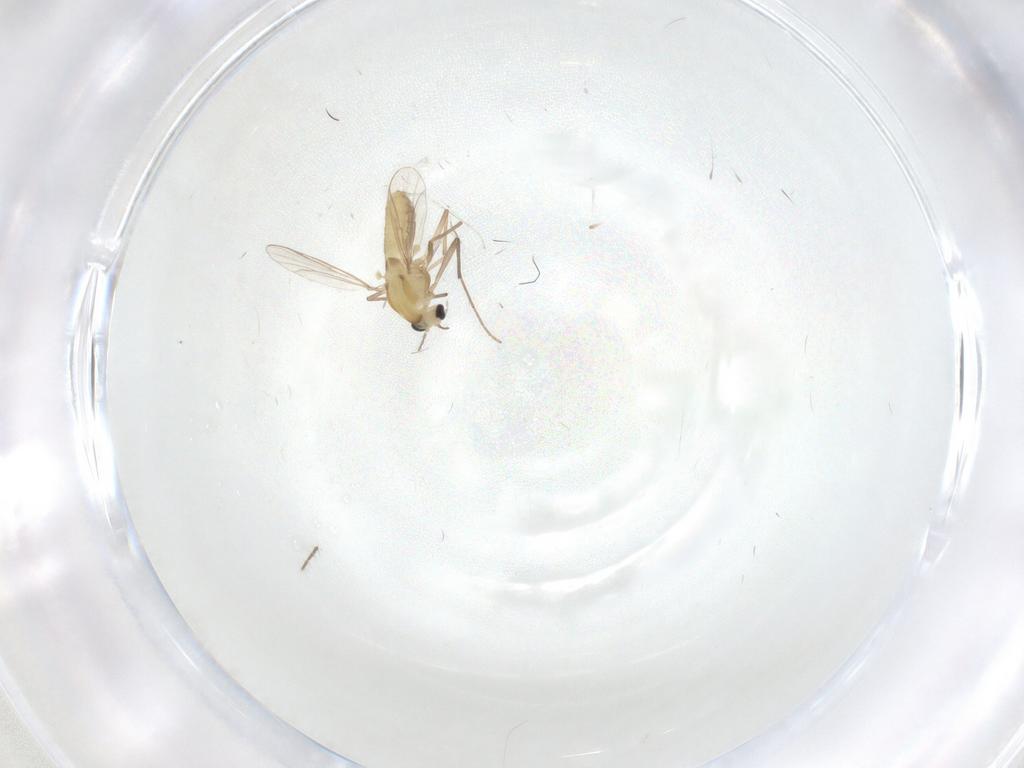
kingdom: Animalia
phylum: Arthropoda
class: Insecta
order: Diptera
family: Chironomidae
